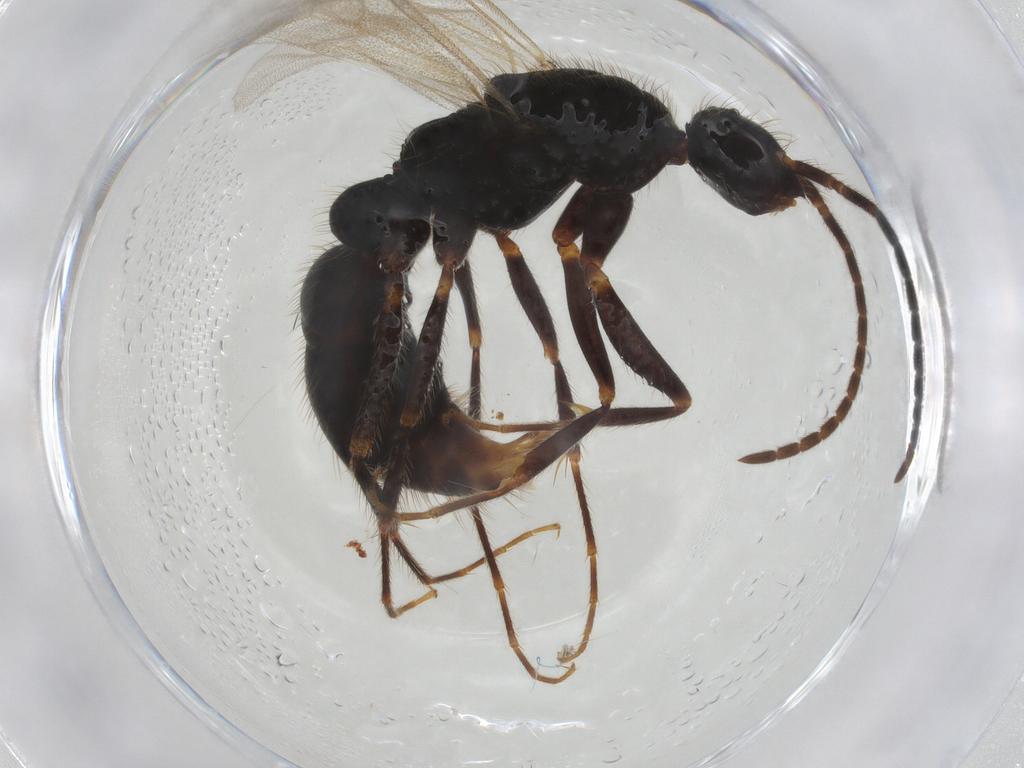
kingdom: Animalia
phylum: Arthropoda
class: Insecta
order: Hymenoptera
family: Formicidae
